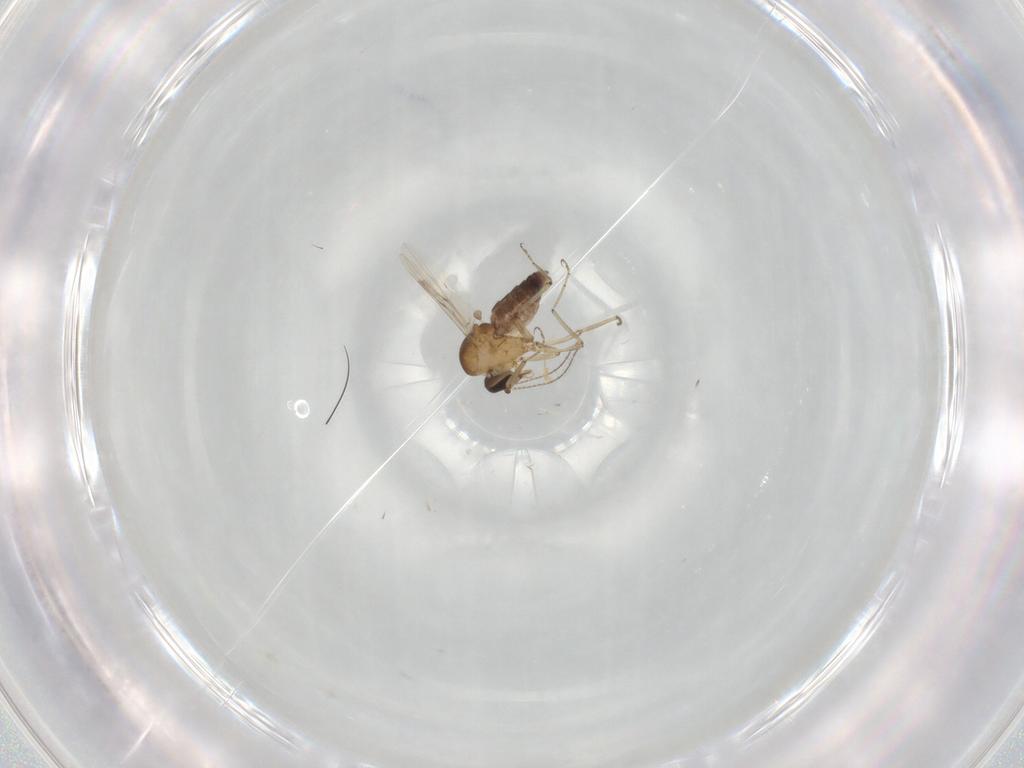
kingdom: Animalia
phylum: Arthropoda
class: Insecta
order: Diptera
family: Ceratopogonidae
